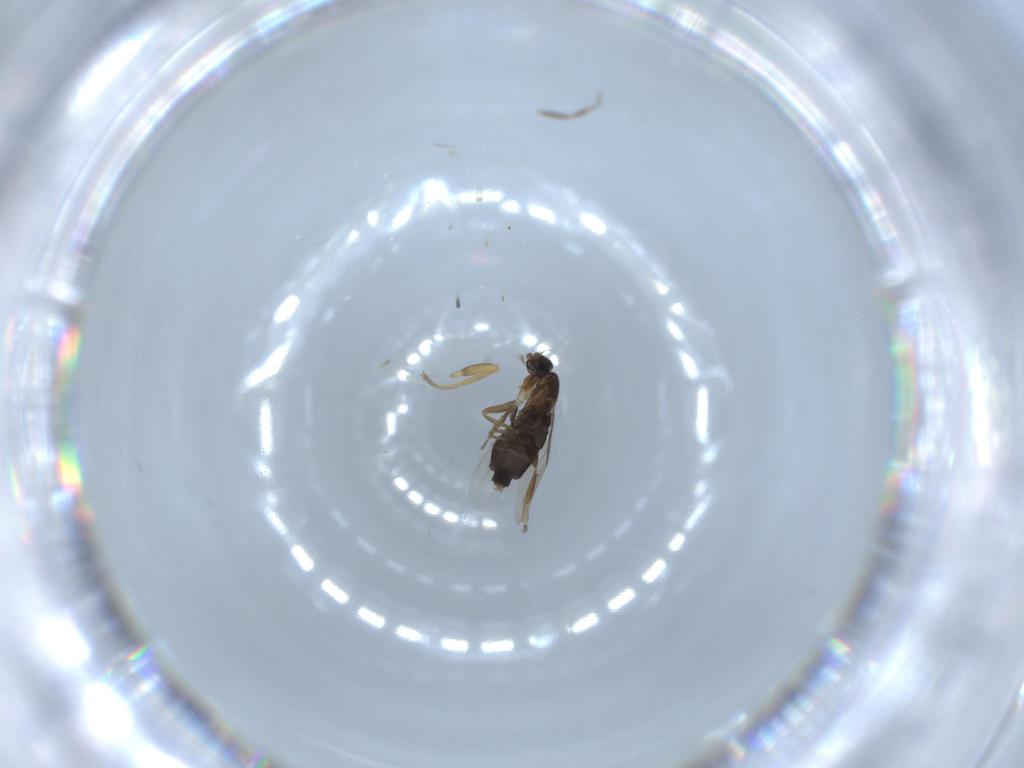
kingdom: Animalia
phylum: Arthropoda
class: Insecta
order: Diptera
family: Chloropidae
